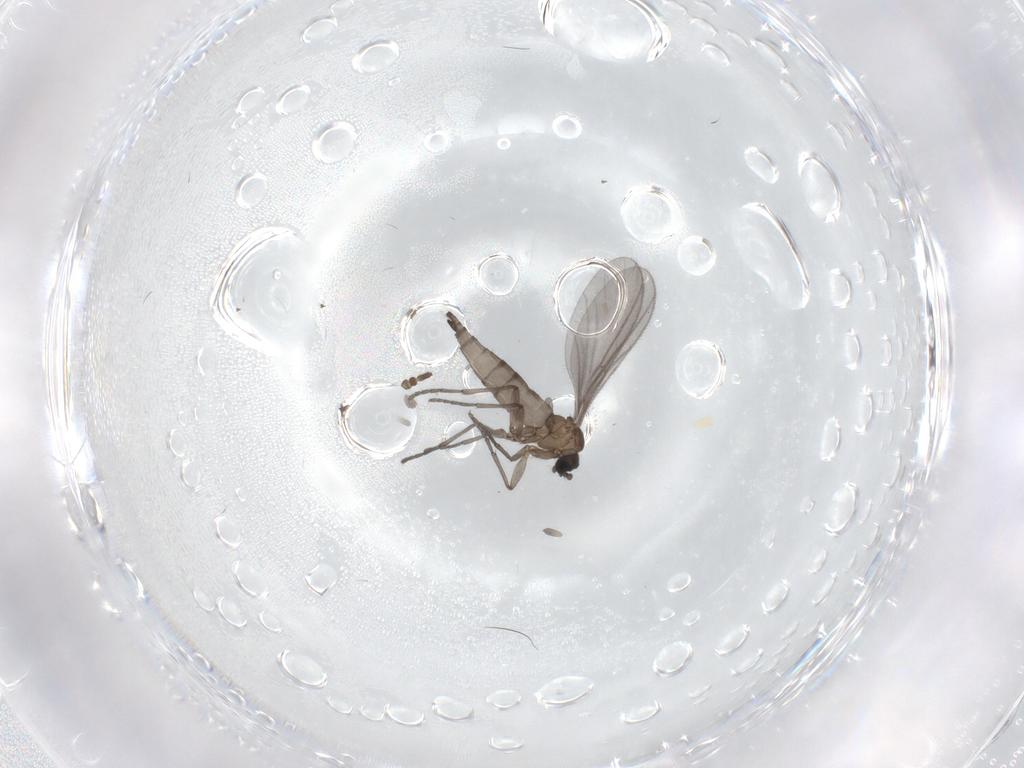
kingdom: Animalia
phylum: Arthropoda
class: Insecta
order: Diptera
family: Sciaridae
